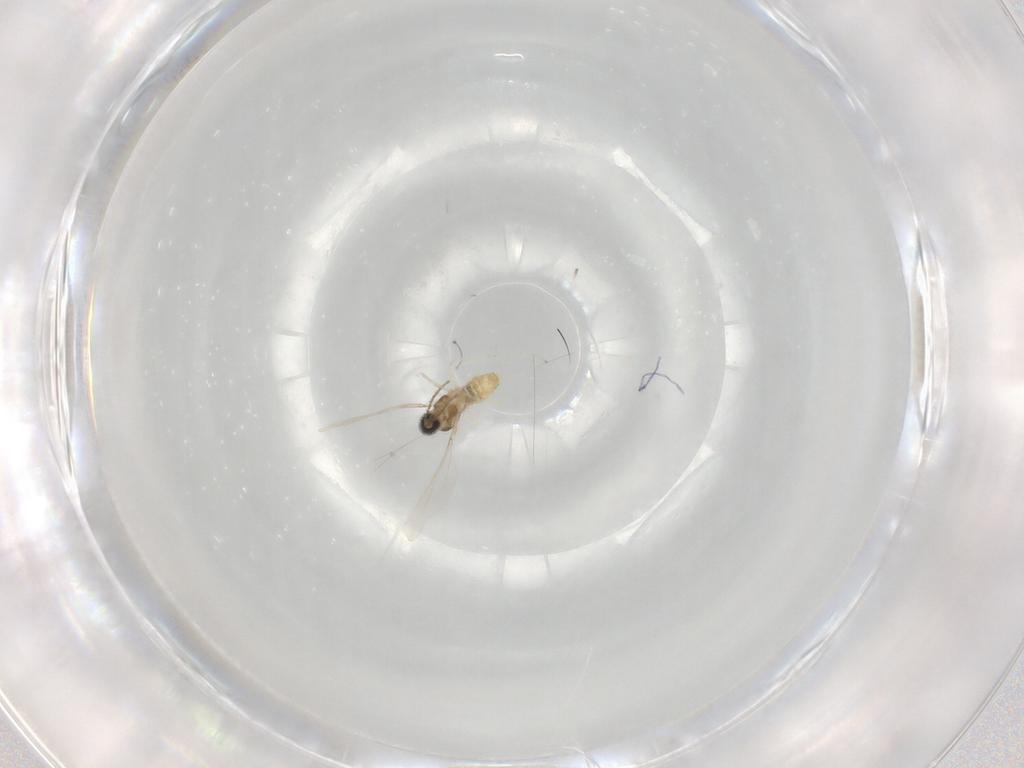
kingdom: Animalia
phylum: Arthropoda
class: Insecta
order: Diptera
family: Cecidomyiidae
